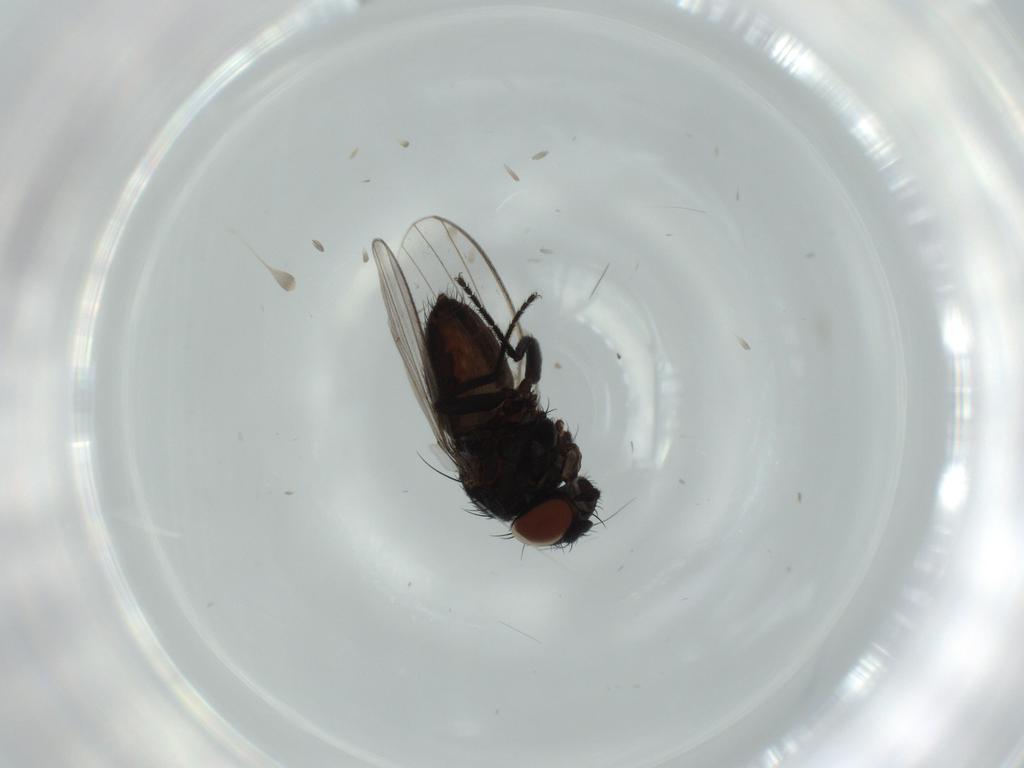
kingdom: Animalia
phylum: Arthropoda
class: Insecta
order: Diptera
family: Milichiidae
